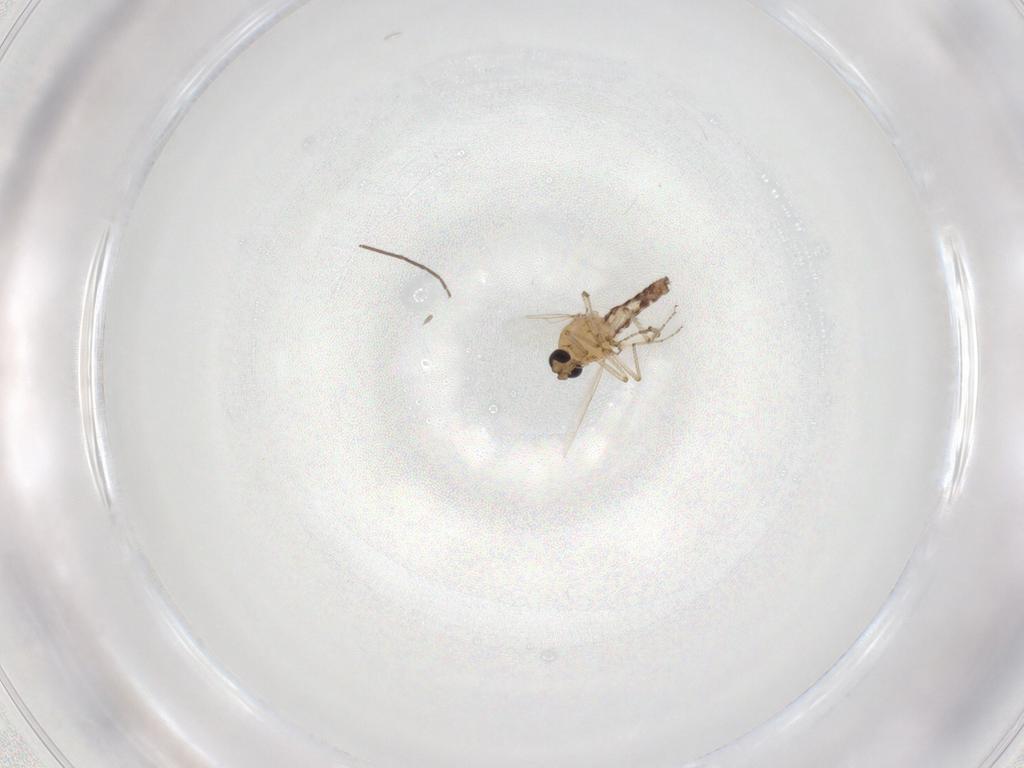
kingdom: Animalia
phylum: Arthropoda
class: Insecta
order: Diptera
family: Ceratopogonidae
